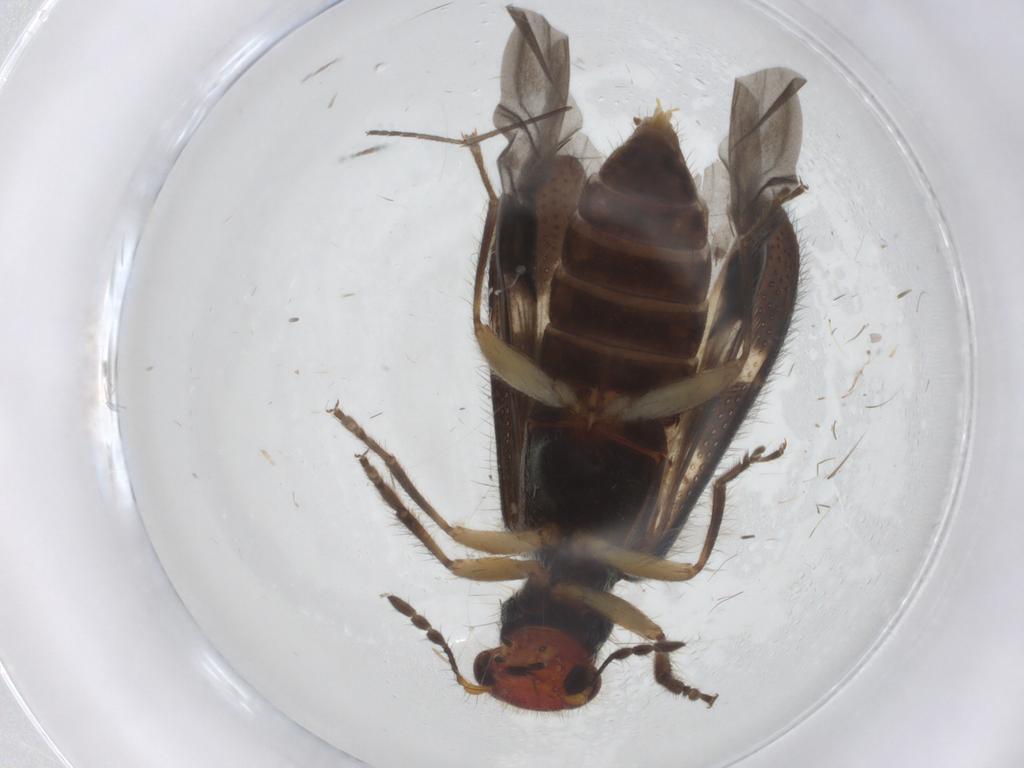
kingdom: Animalia
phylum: Arthropoda
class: Insecta
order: Coleoptera
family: Cleridae
